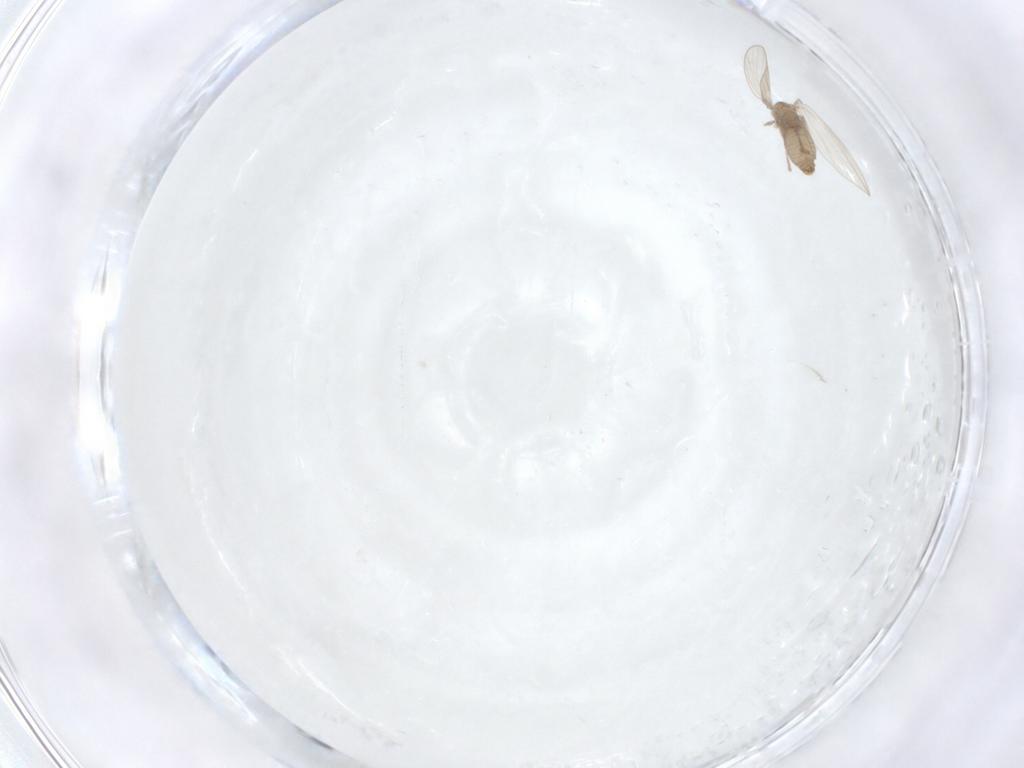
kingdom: Animalia
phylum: Arthropoda
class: Insecta
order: Diptera
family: Psychodidae
